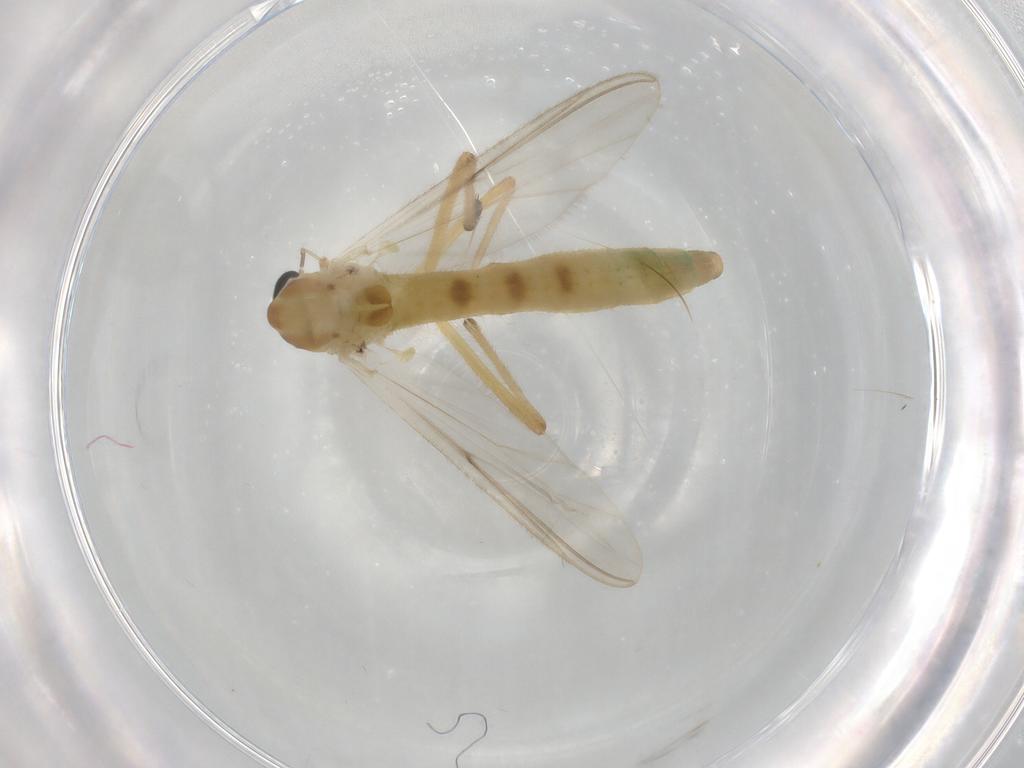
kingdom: Animalia
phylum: Arthropoda
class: Insecta
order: Diptera
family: Chironomidae
